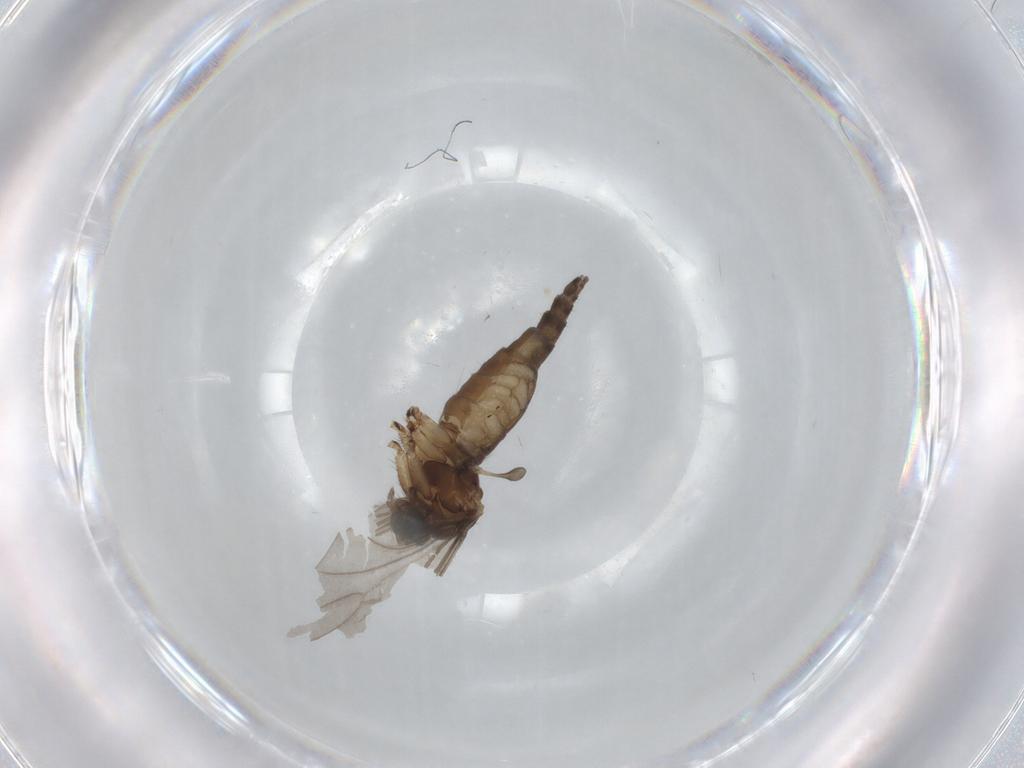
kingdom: Animalia
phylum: Arthropoda
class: Insecta
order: Diptera
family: Sciaridae
